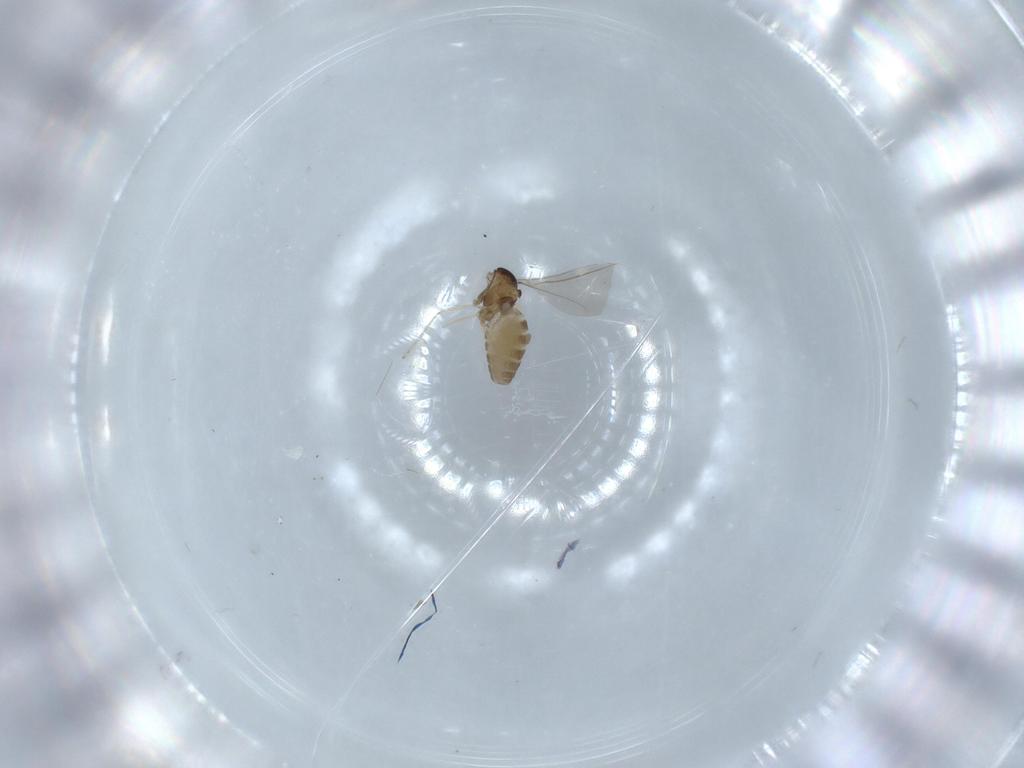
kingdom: Animalia
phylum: Arthropoda
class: Insecta
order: Diptera
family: Cecidomyiidae
